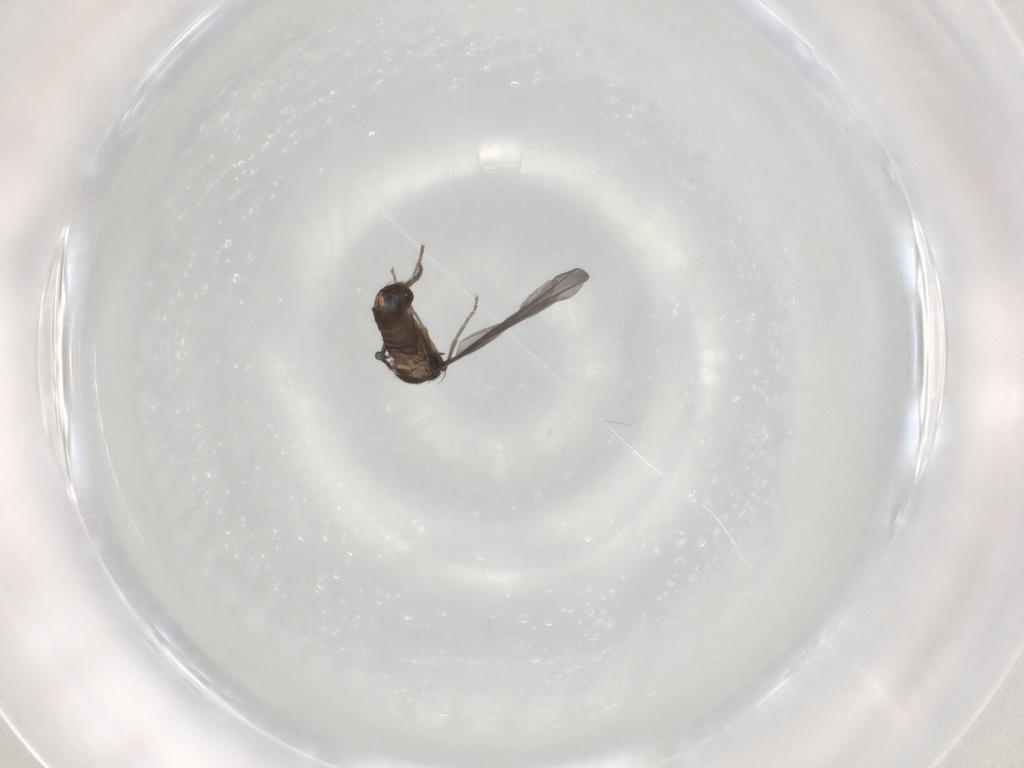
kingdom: Animalia
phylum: Arthropoda
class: Insecta
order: Diptera
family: Phoridae
